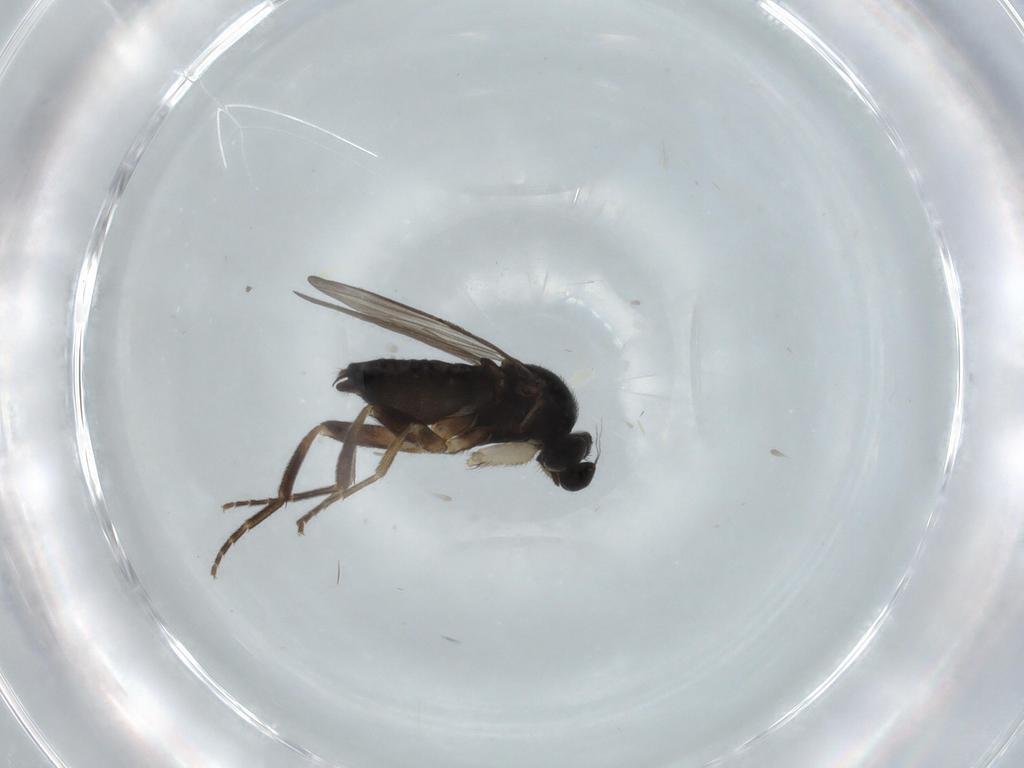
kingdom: Animalia
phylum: Arthropoda
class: Insecta
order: Diptera
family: Phoridae
